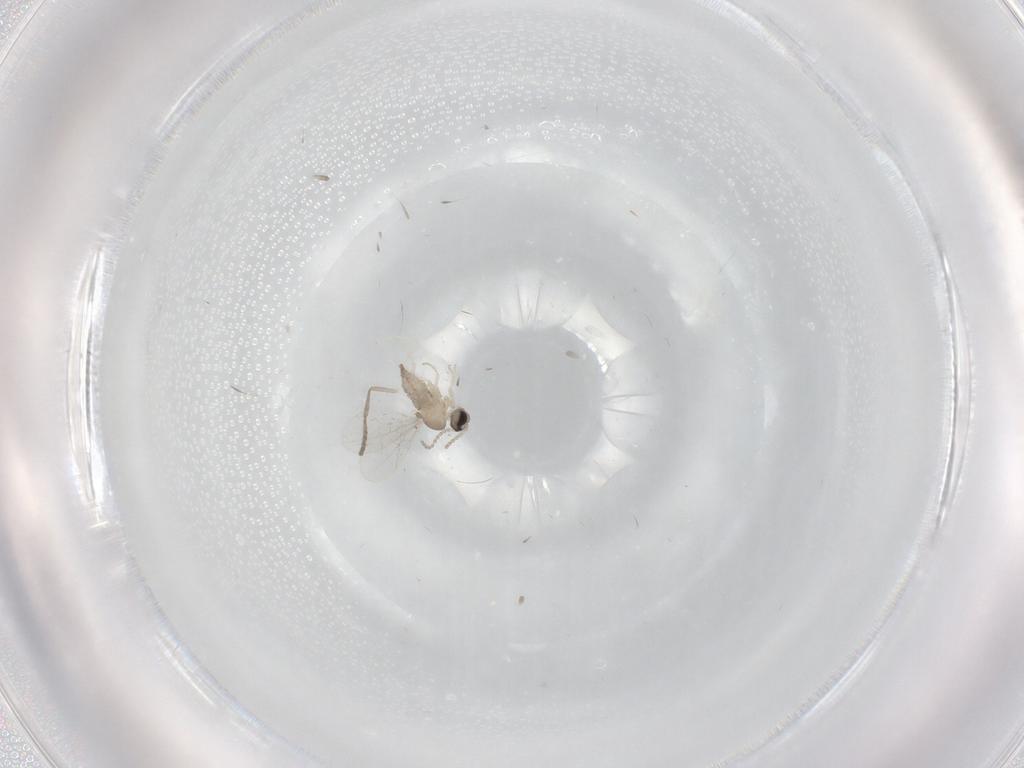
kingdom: Animalia
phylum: Arthropoda
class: Insecta
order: Diptera
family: Cecidomyiidae
